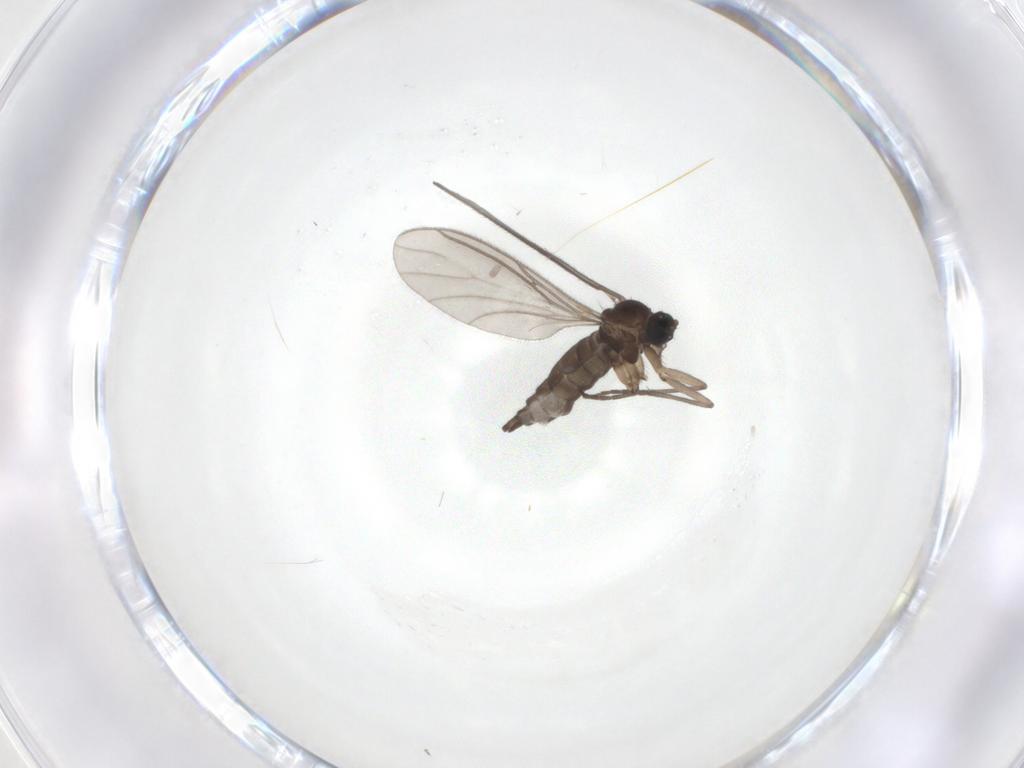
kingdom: Animalia
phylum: Arthropoda
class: Insecta
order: Diptera
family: Sciaridae
